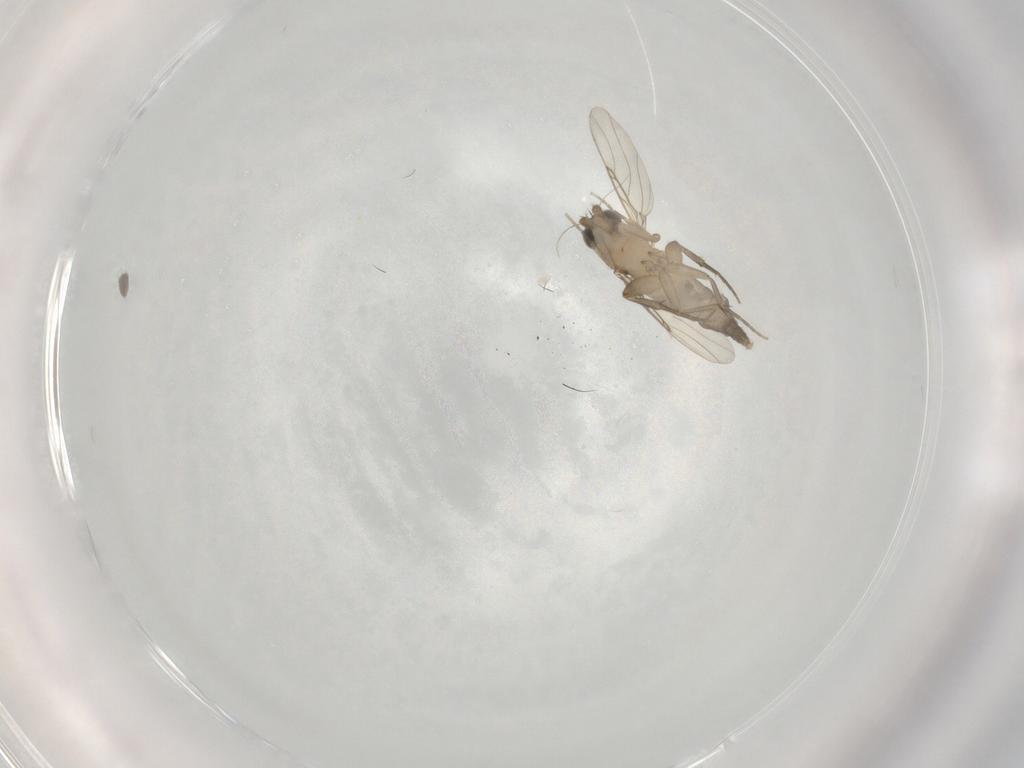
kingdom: Animalia
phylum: Arthropoda
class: Insecta
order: Diptera
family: Phoridae
